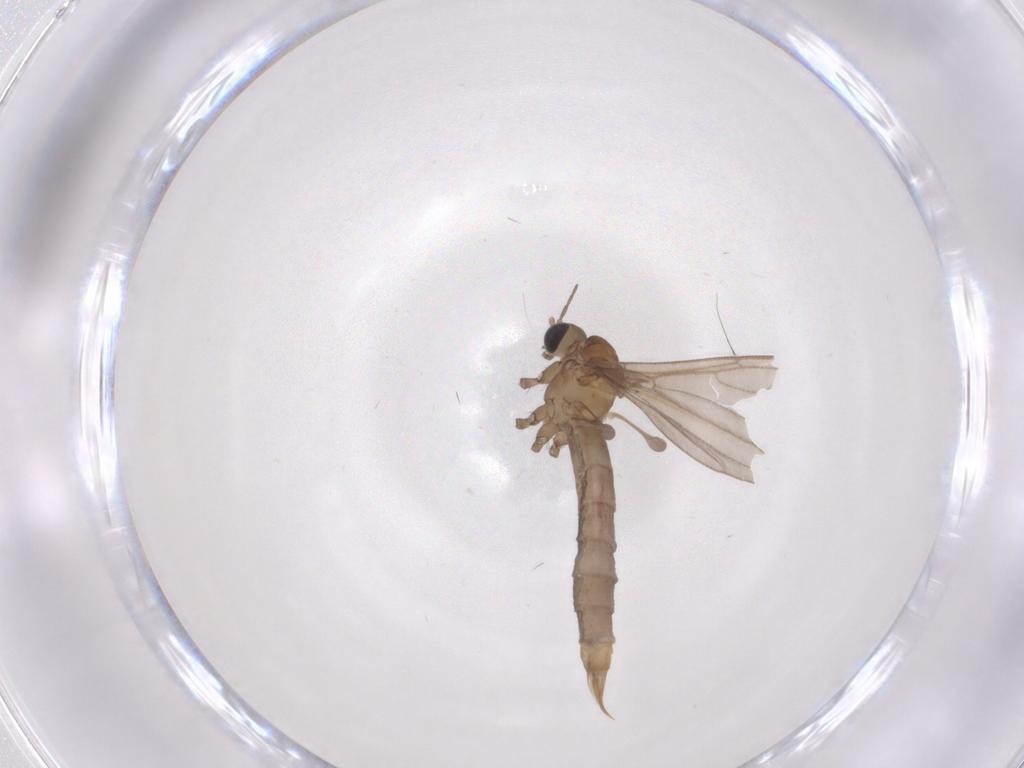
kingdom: Animalia
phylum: Arthropoda
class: Insecta
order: Diptera
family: Limoniidae
